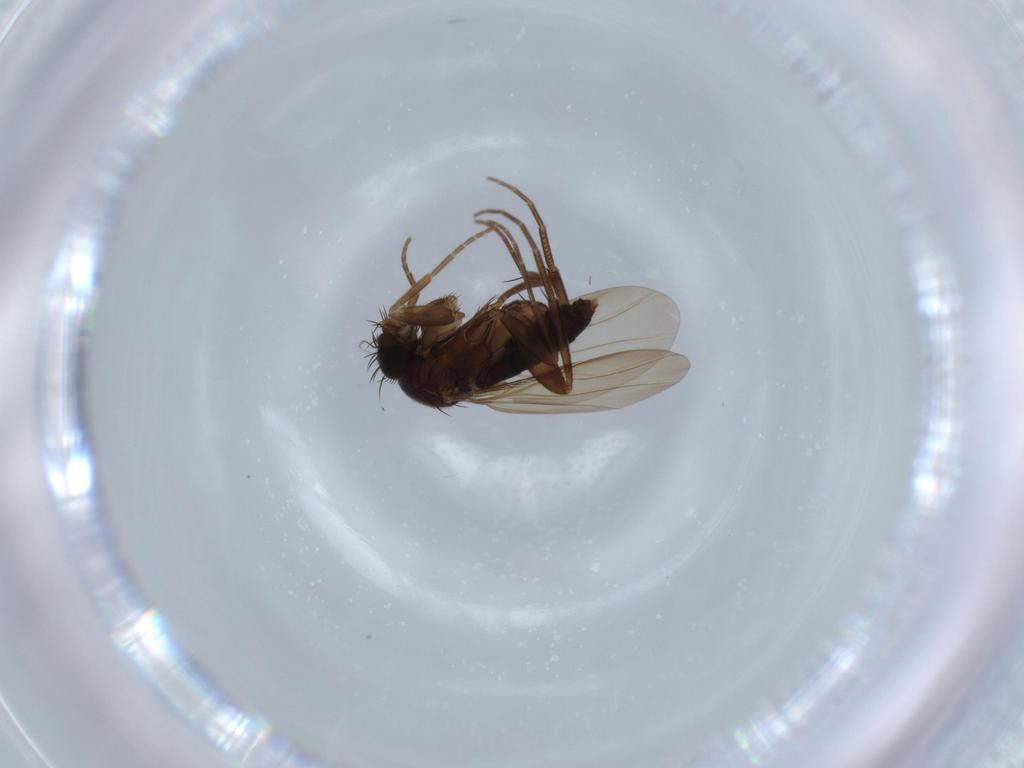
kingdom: Animalia
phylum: Arthropoda
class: Insecta
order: Diptera
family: Phoridae
